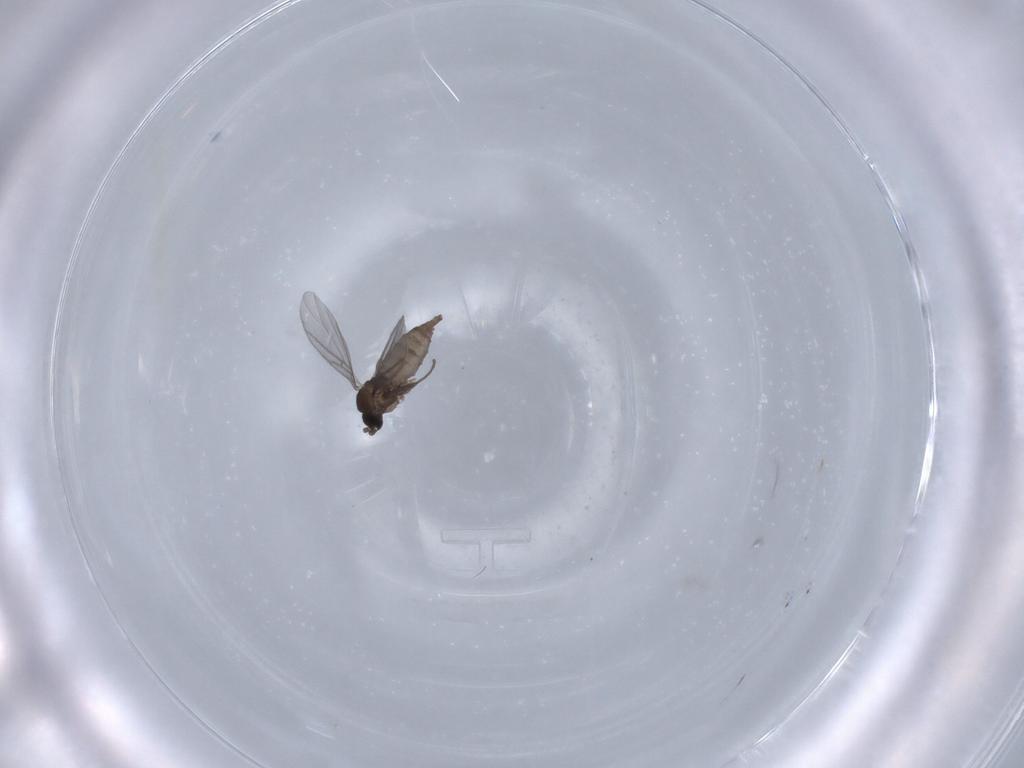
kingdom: Animalia
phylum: Arthropoda
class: Insecta
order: Diptera
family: Sciaridae
